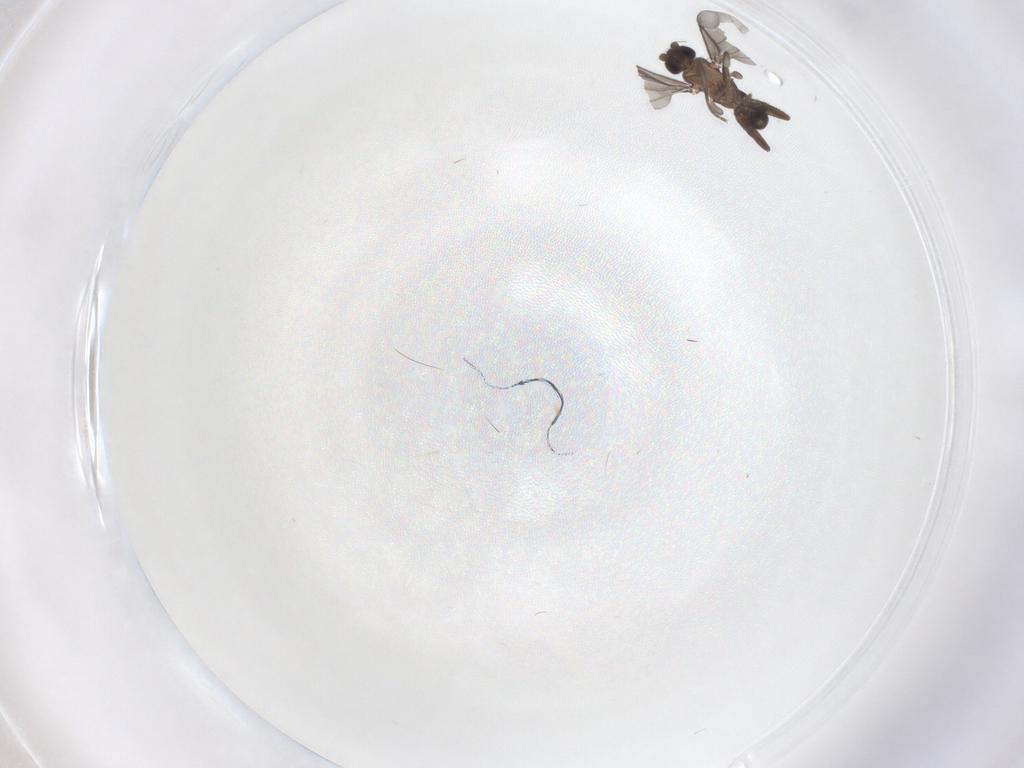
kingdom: Animalia
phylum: Arthropoda
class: Insecta
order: Diptera
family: Phoridae
